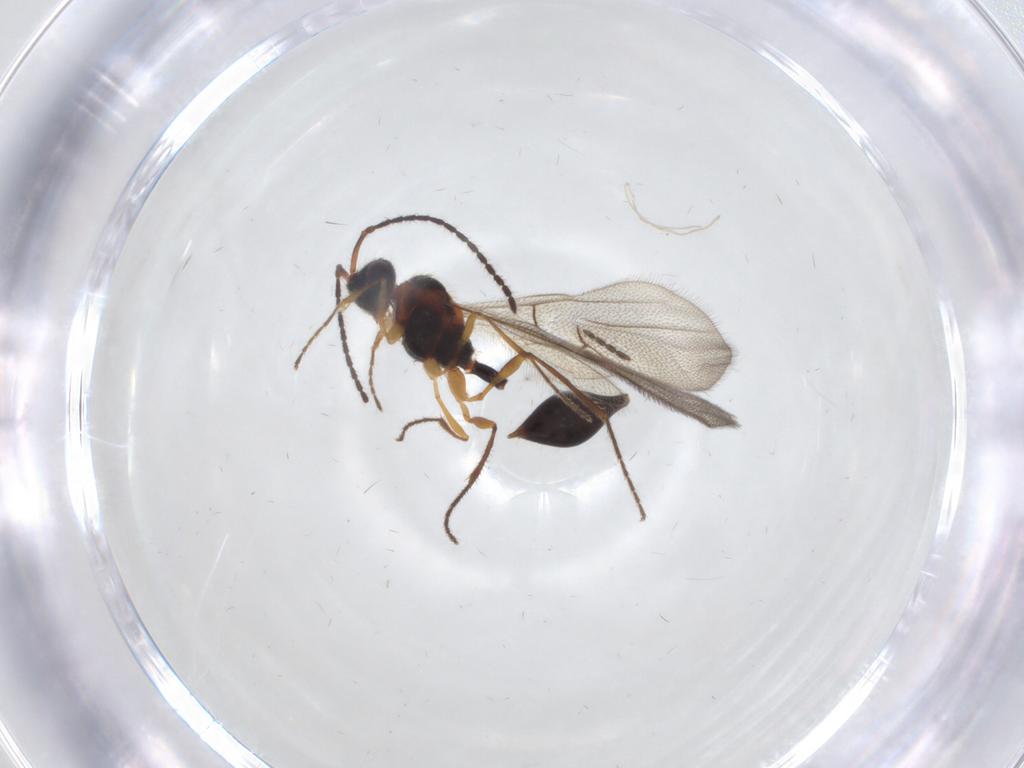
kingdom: Animalia
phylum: Arthropoda
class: Insecta
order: Hymenoptera
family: Diapriidae
